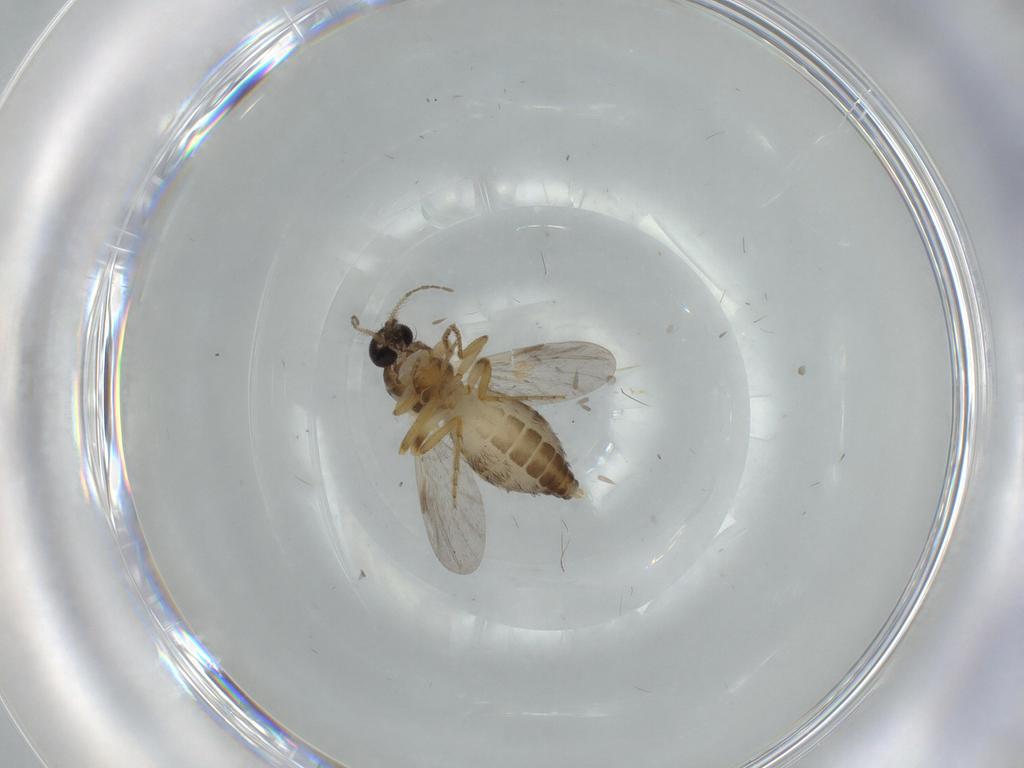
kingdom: Animalia
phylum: Arthropoda
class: Insecta
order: Diptera
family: Ceratopogonidae
